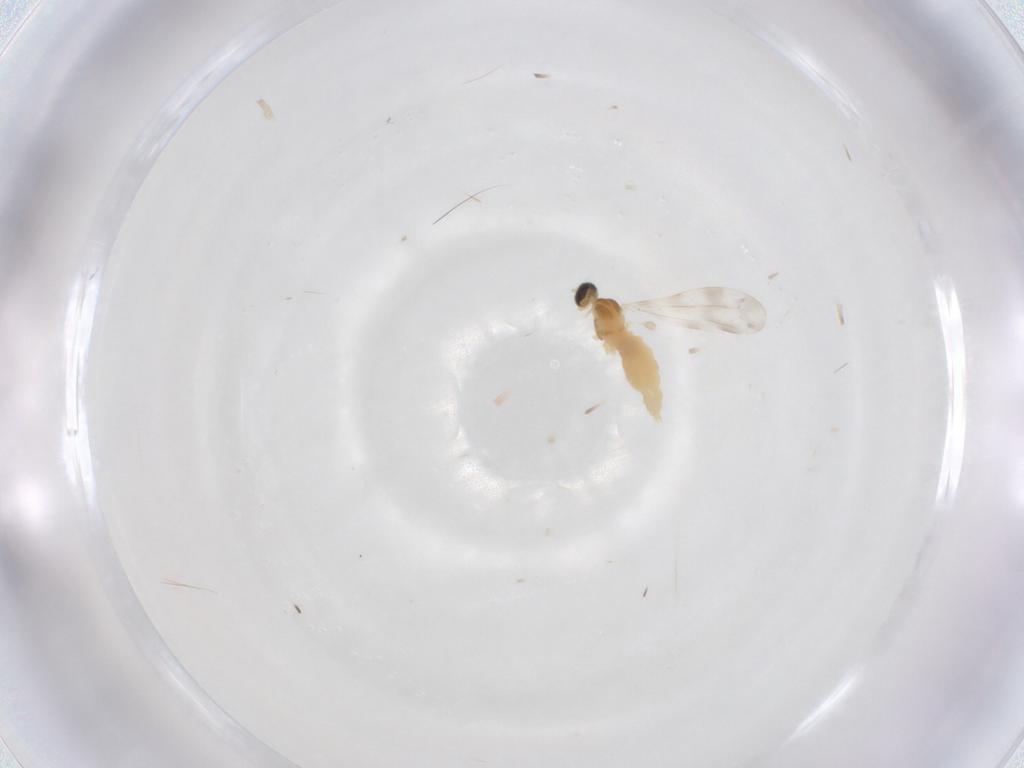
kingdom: Animalia
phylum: Arthropoda
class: Insecta
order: Diptera
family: Cecidomyiidae
